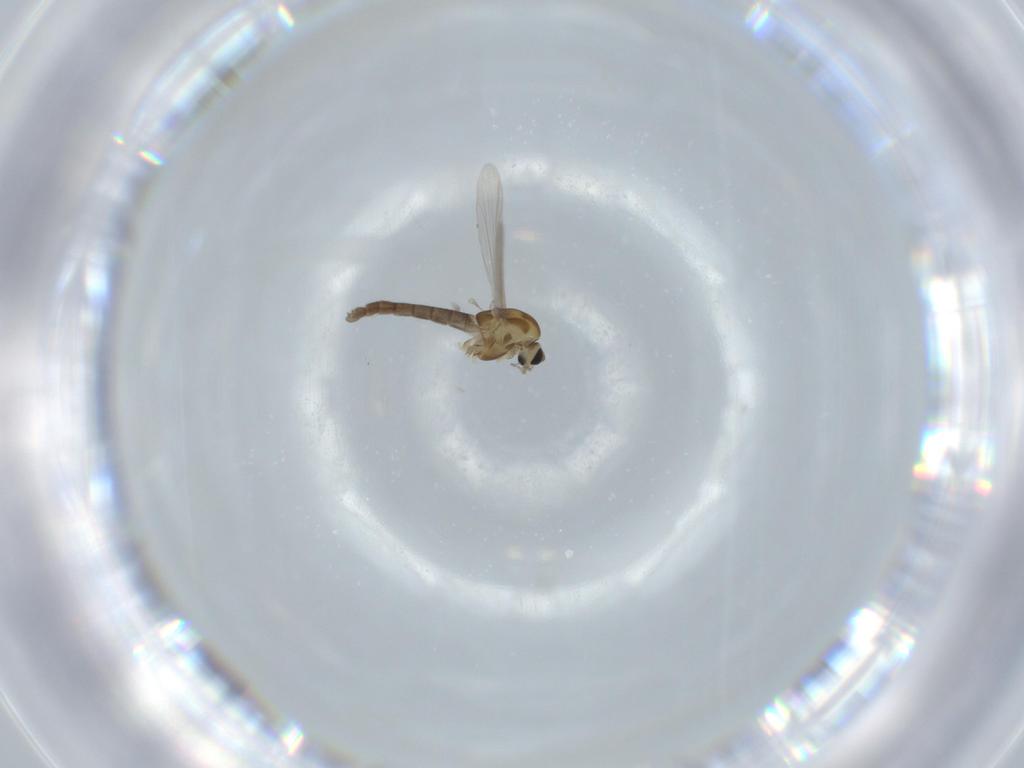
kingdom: Animalia
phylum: Arthropoda
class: Insecta
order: Diptera
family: Chironomidae
